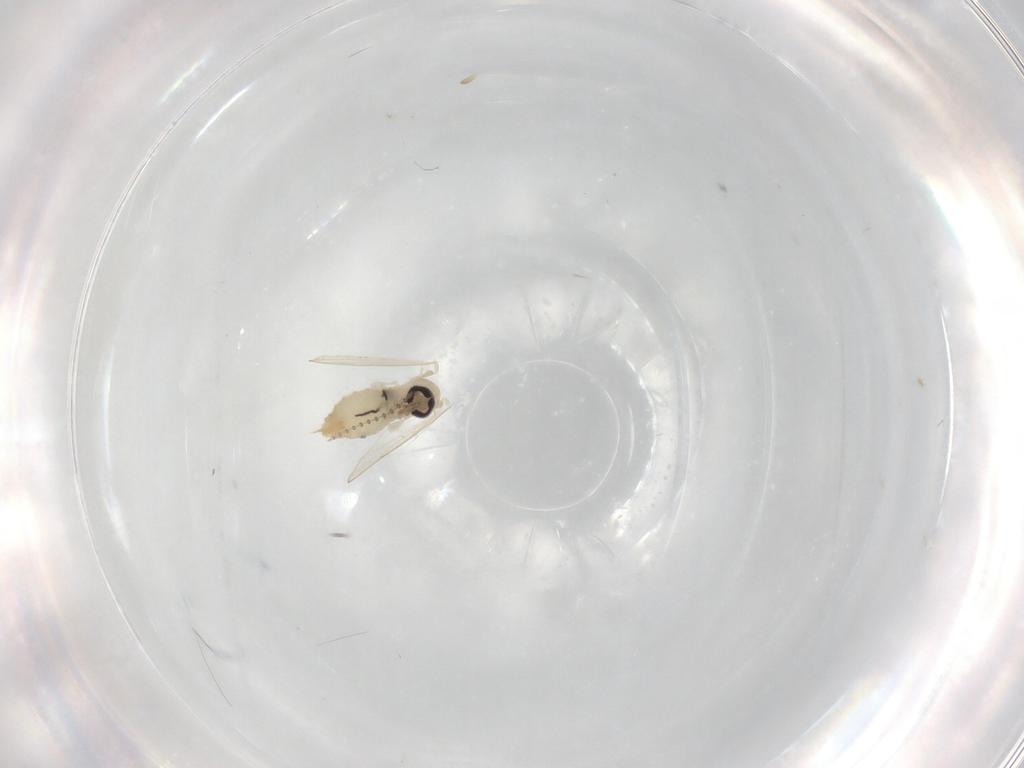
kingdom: Animalia
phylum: Arthropoda
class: Insecta
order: Diptera
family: Psychodidae
